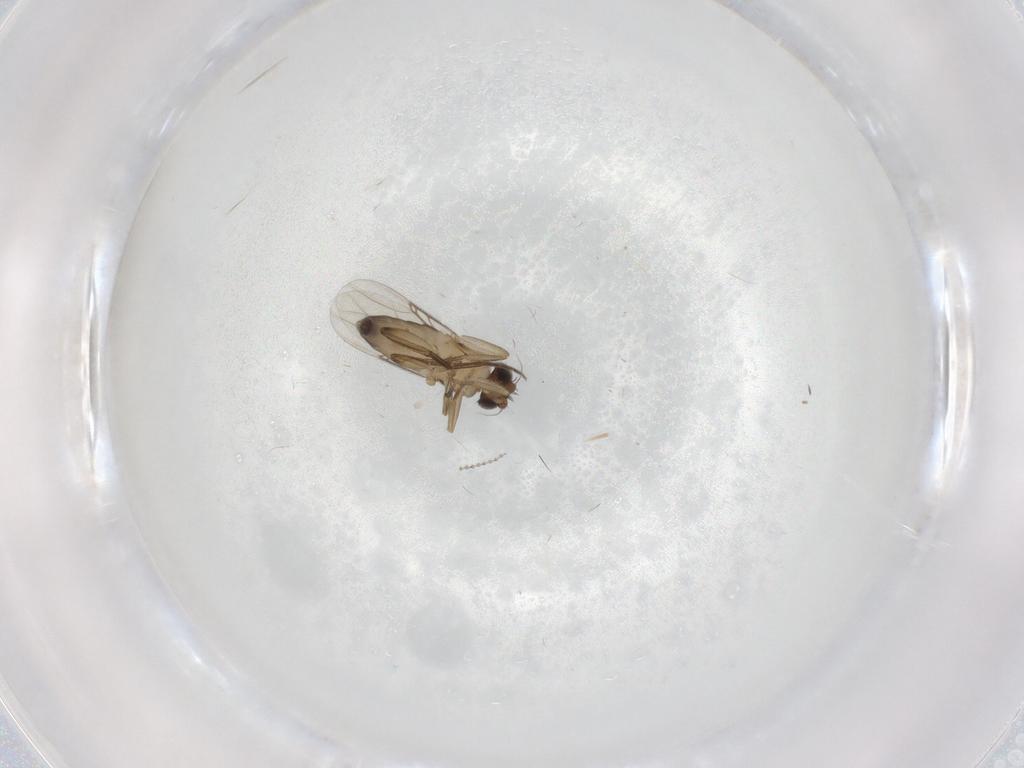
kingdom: Animalia
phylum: Arthropoda
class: Insecta
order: Diptera
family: Phoridae
